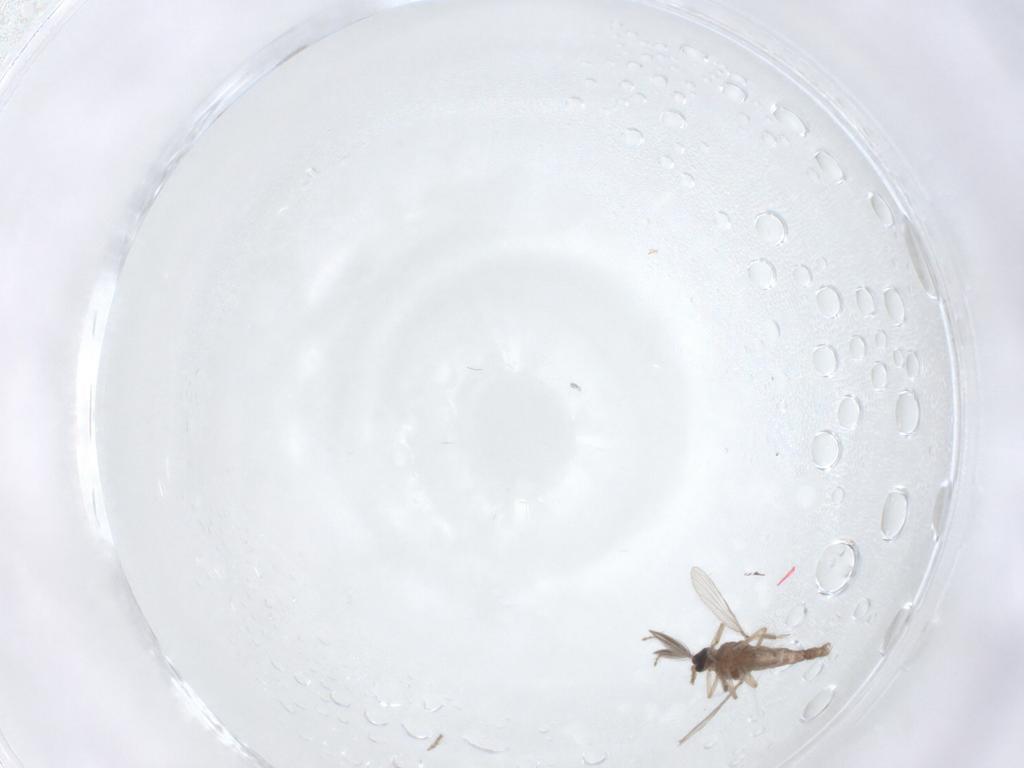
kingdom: Animalia
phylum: Arthropoda
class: Insecta
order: Diptera
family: Ceratopogonidae
